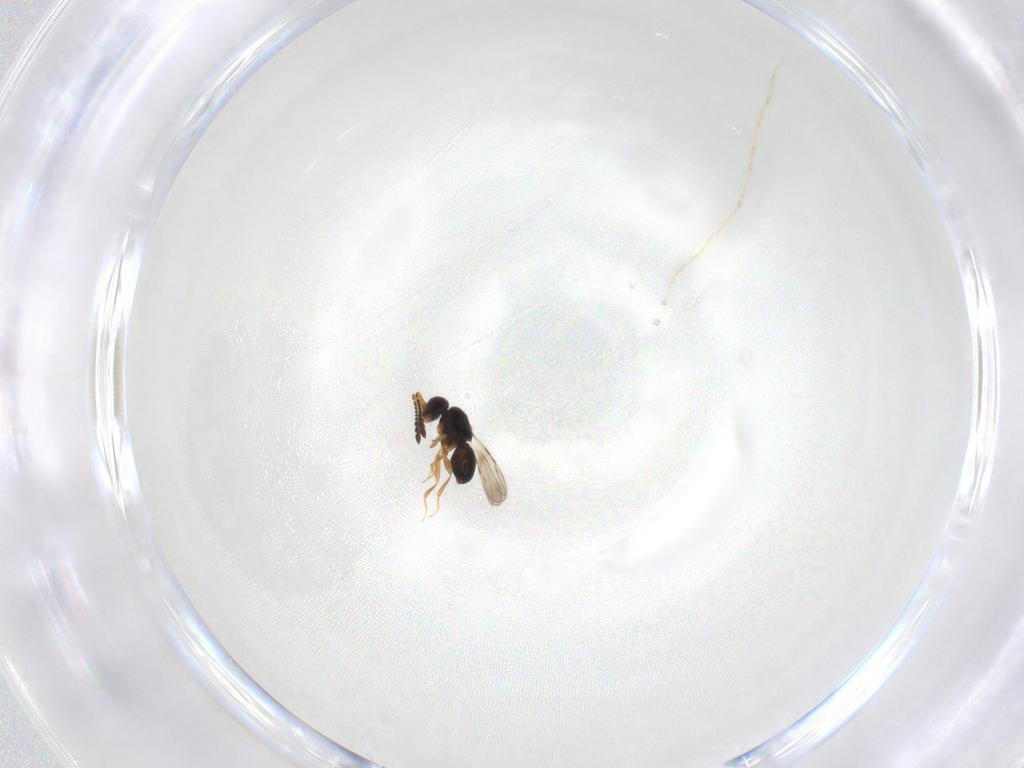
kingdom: Animalia
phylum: Arthropoda
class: Insecta
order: Hymenoptera
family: Ceraphronidae
